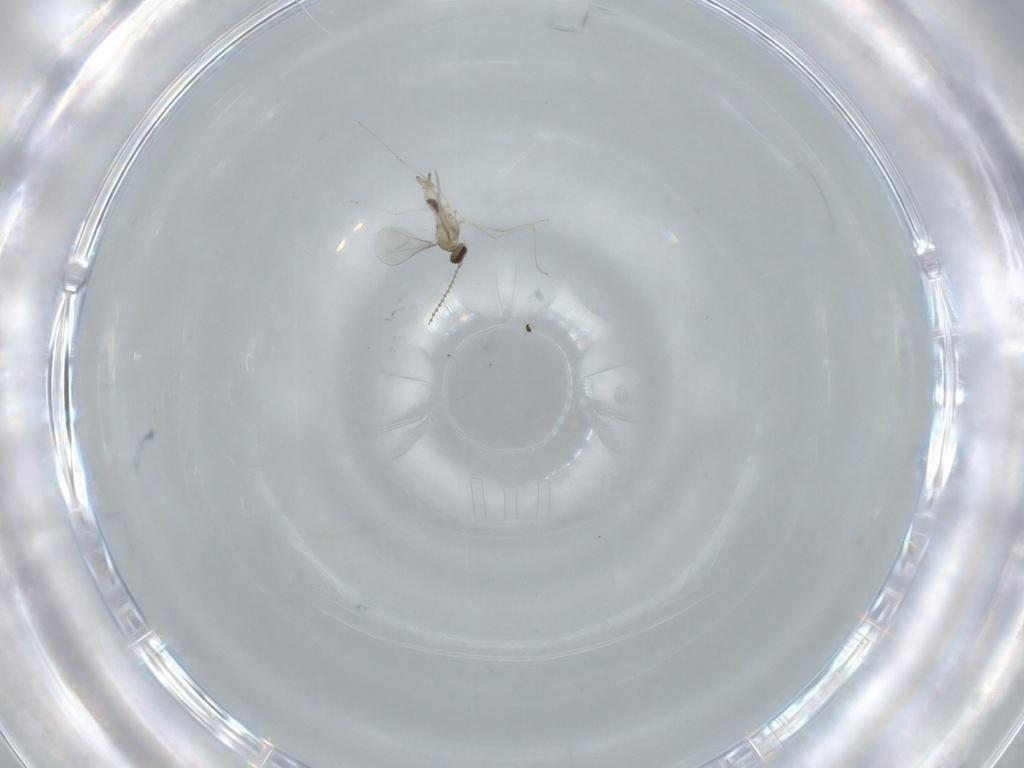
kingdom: Animalia
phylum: Arthropoda
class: Insecta
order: Diptera
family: Cecidomyiidae
